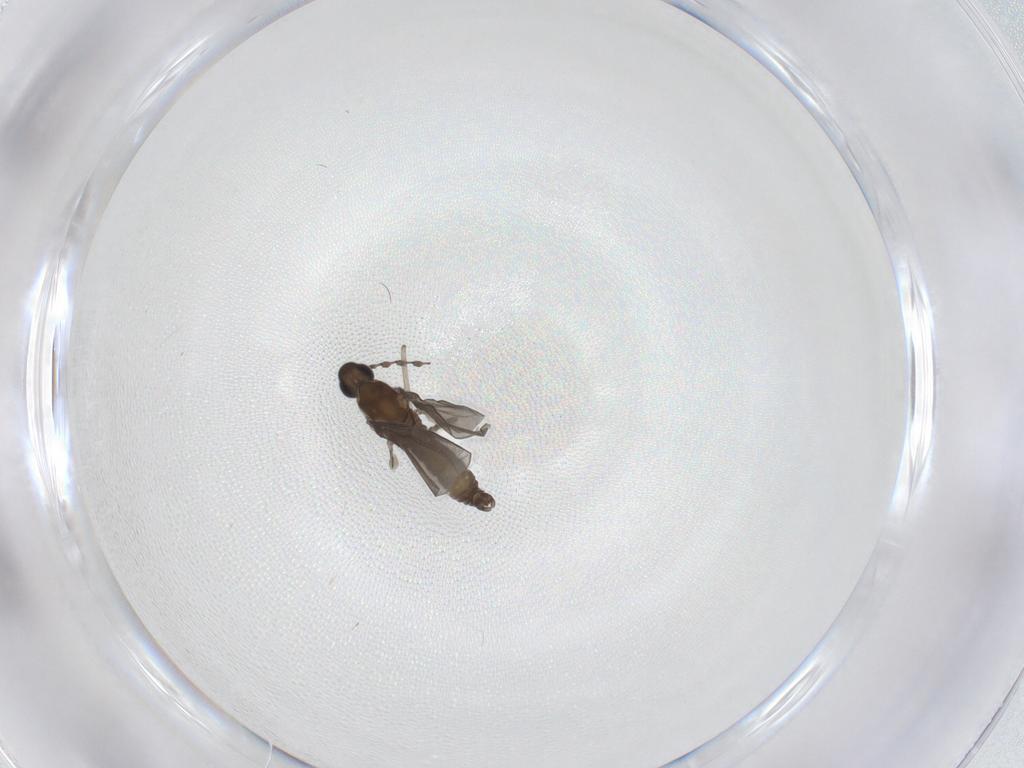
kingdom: Animalia
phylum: Arthropoda
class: Insecta
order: Diptera
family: Cecidomyiidae
